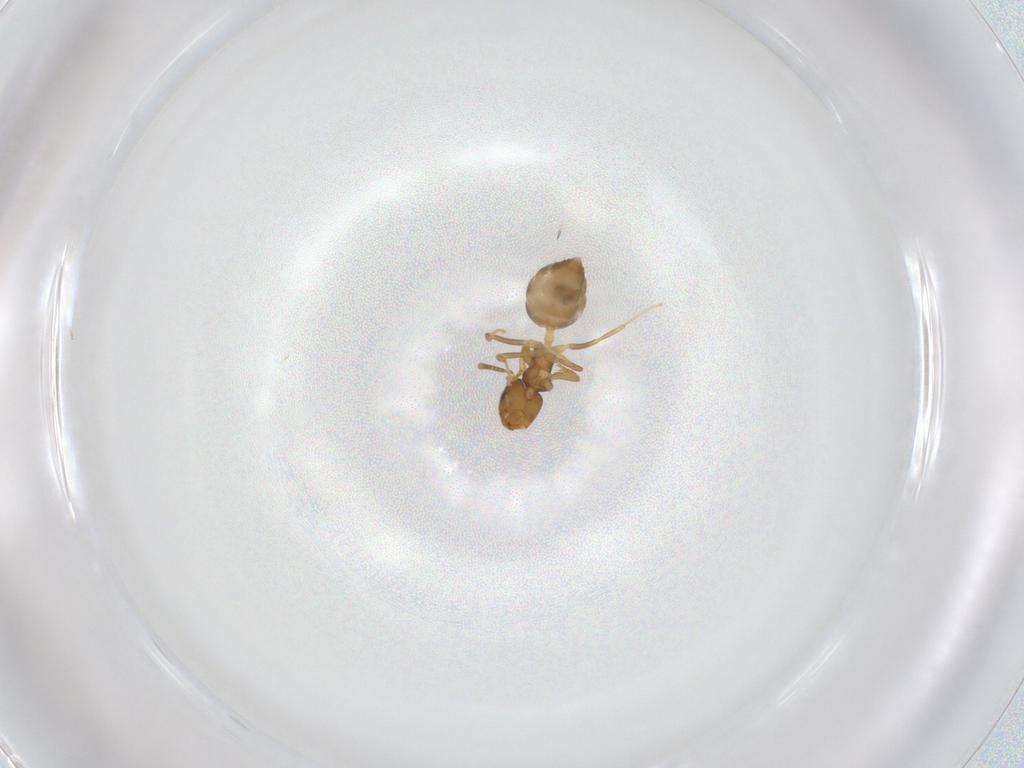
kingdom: Animalia
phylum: Arthropoda
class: Insecta
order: Hymenoptera
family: Formicidae
